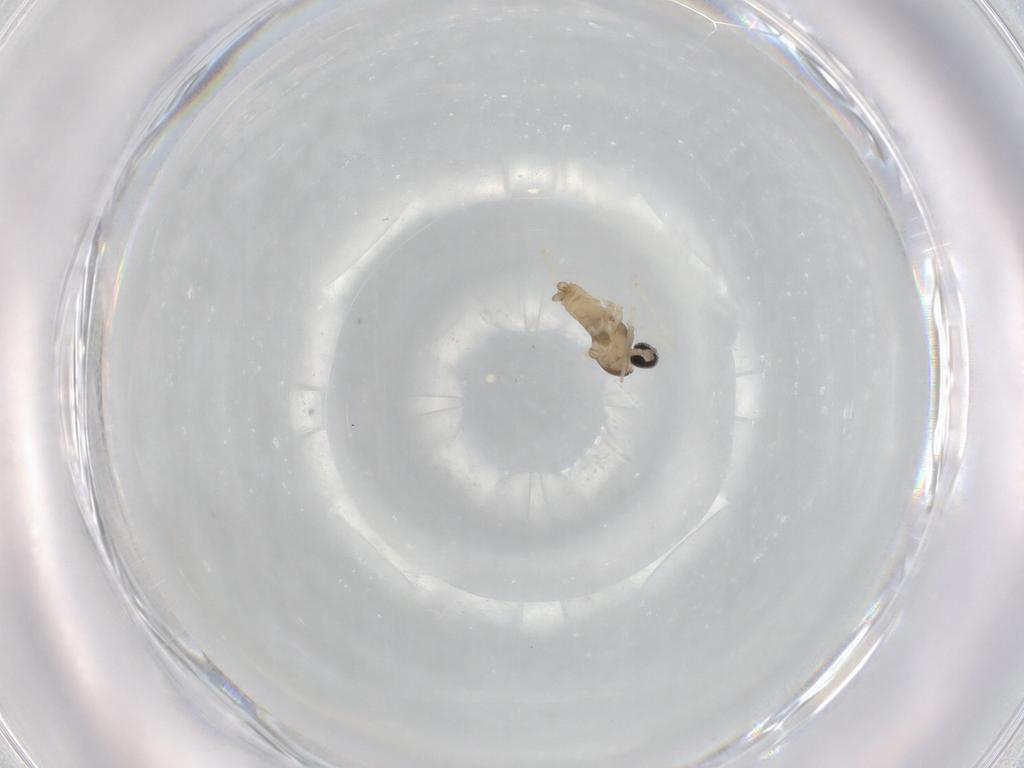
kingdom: Animalia
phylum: Arthropoda
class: Insecta
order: Diptera
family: Cecidomyiidae
